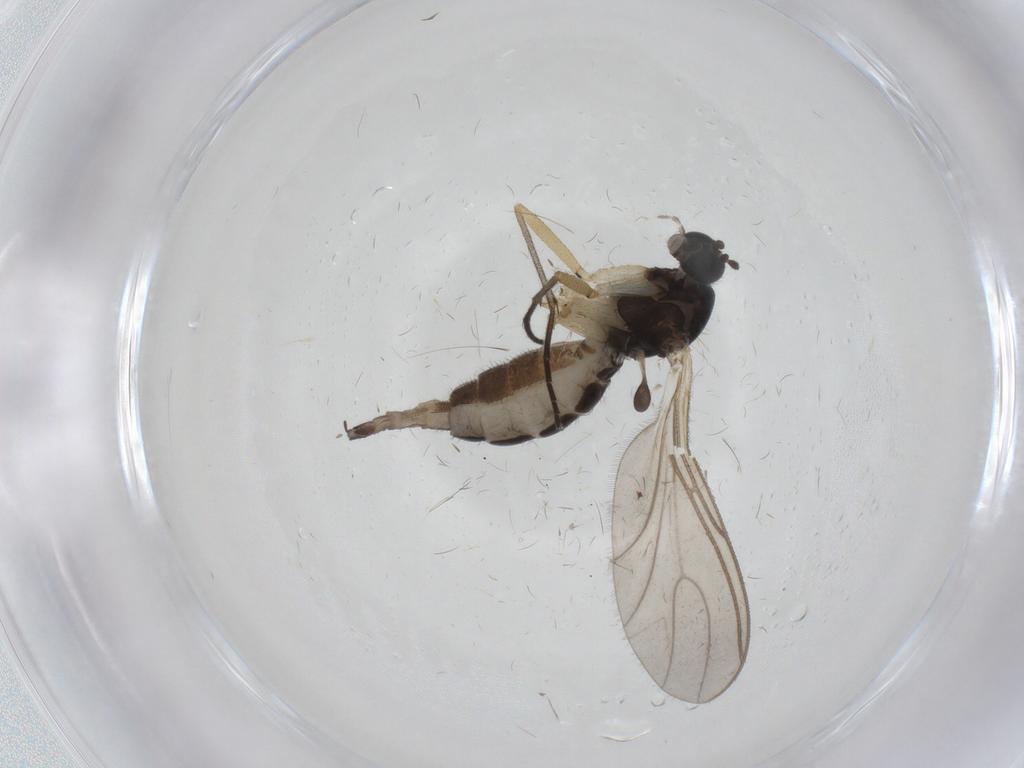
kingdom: Animalia
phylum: Arthropoda
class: Insecta
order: Diptera
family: Sciaridae
